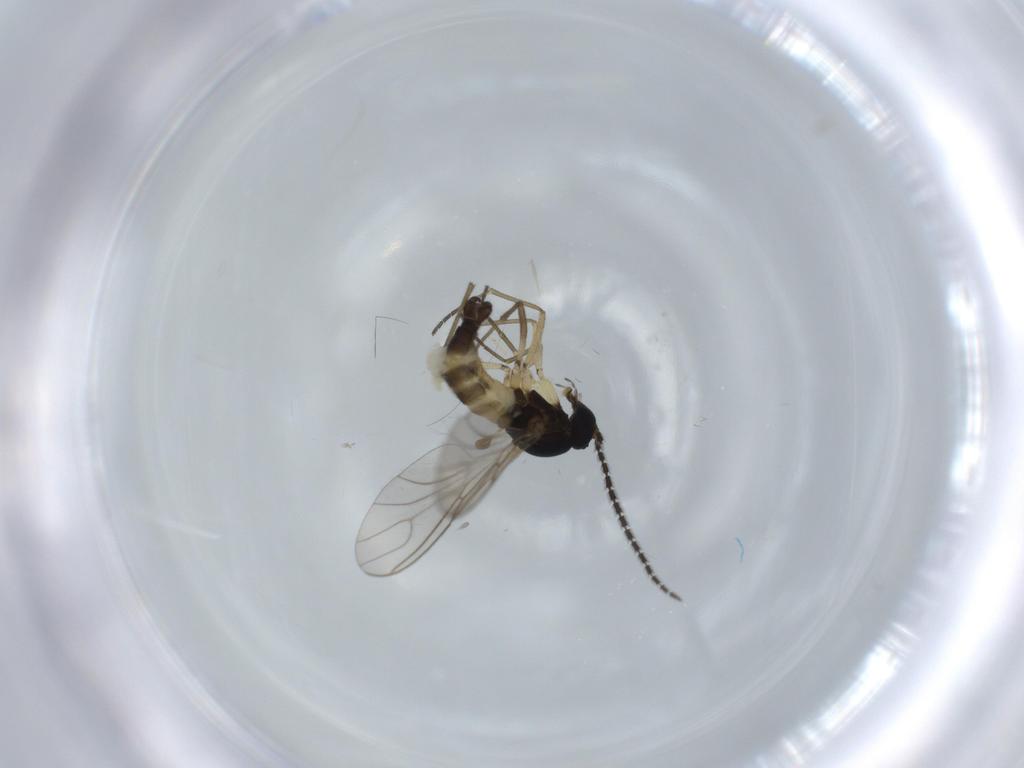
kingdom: Animalia
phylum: Arthropoda
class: Insecta
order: Diptera
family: Sciaridae
